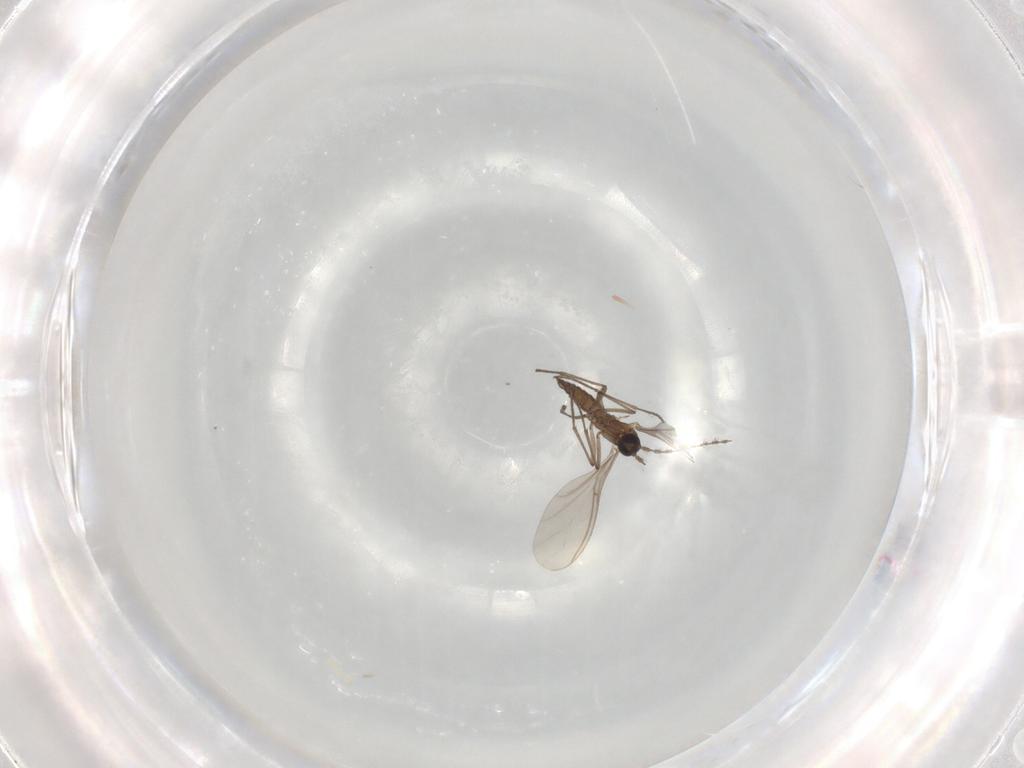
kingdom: Animalia
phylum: Arthropoda
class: Insecta
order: Diptera
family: Sciaridae
